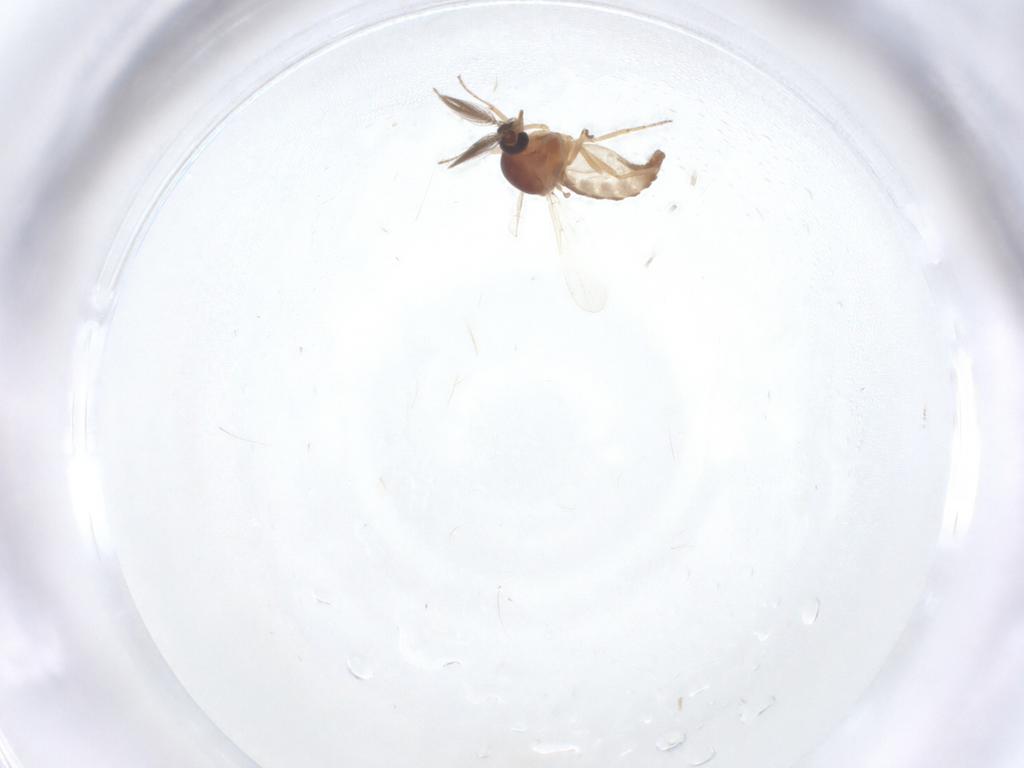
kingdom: Animalia
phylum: Arthropoda
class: Insecta
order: Diptera
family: Ceratopogonidae
